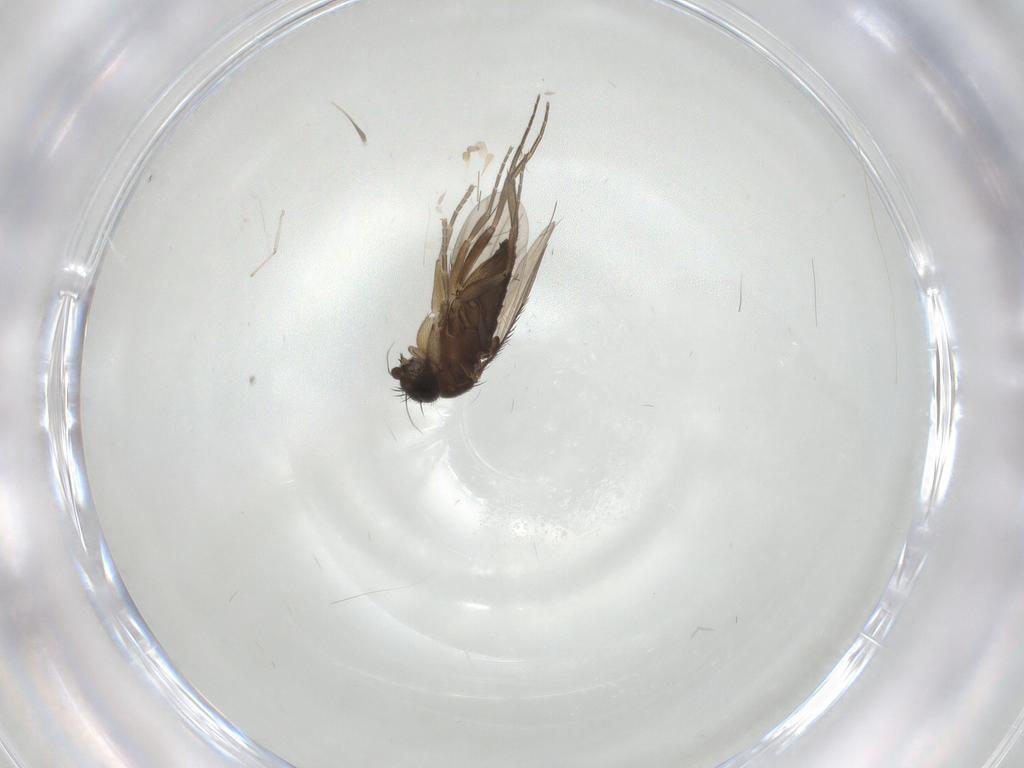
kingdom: Animalia
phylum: Arthropoda
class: Insecta
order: Diptera
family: Phoridae
